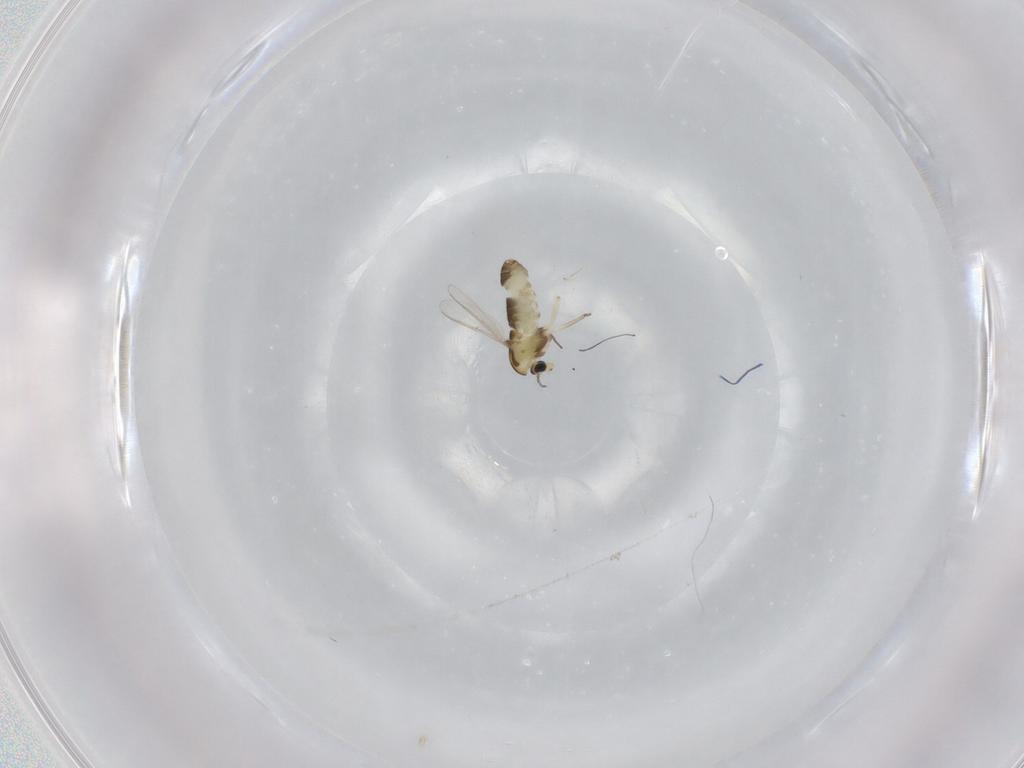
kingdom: Animalia
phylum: Arthropoda
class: Insecta
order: Diptera
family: Chironomidae
